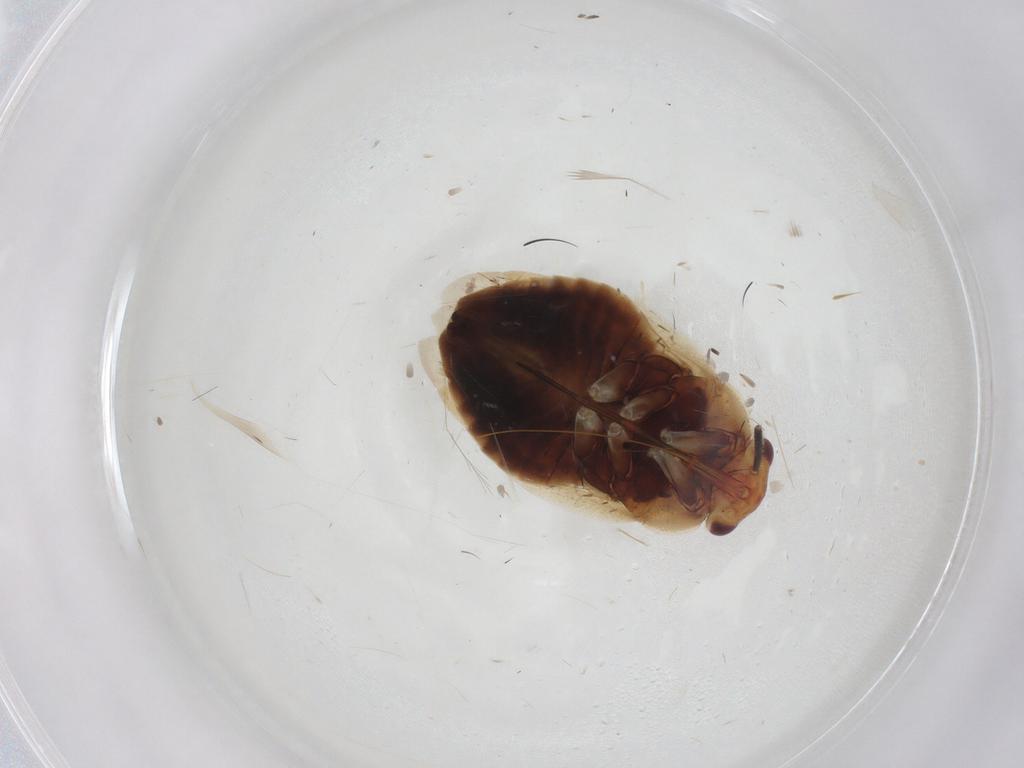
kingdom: Animalia
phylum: Arthropoda
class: Insecta
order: Hemiptera
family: Miridae
